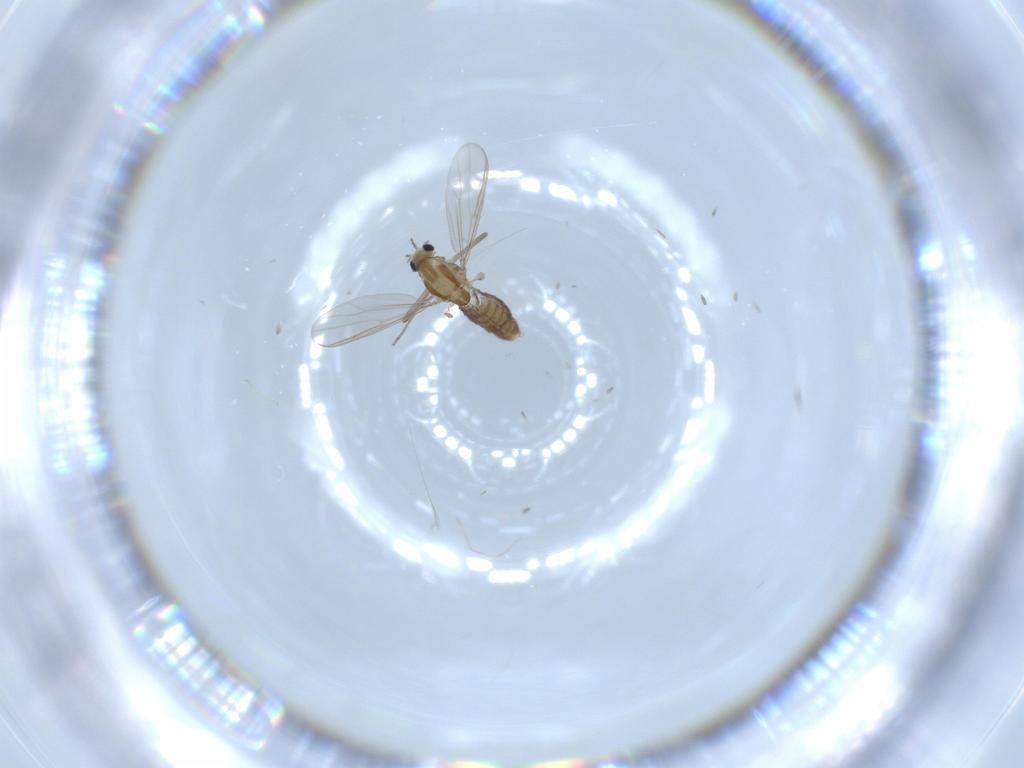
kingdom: Animalia
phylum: Arthropoda
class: Insecta
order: Diptera
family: Chironomidae
